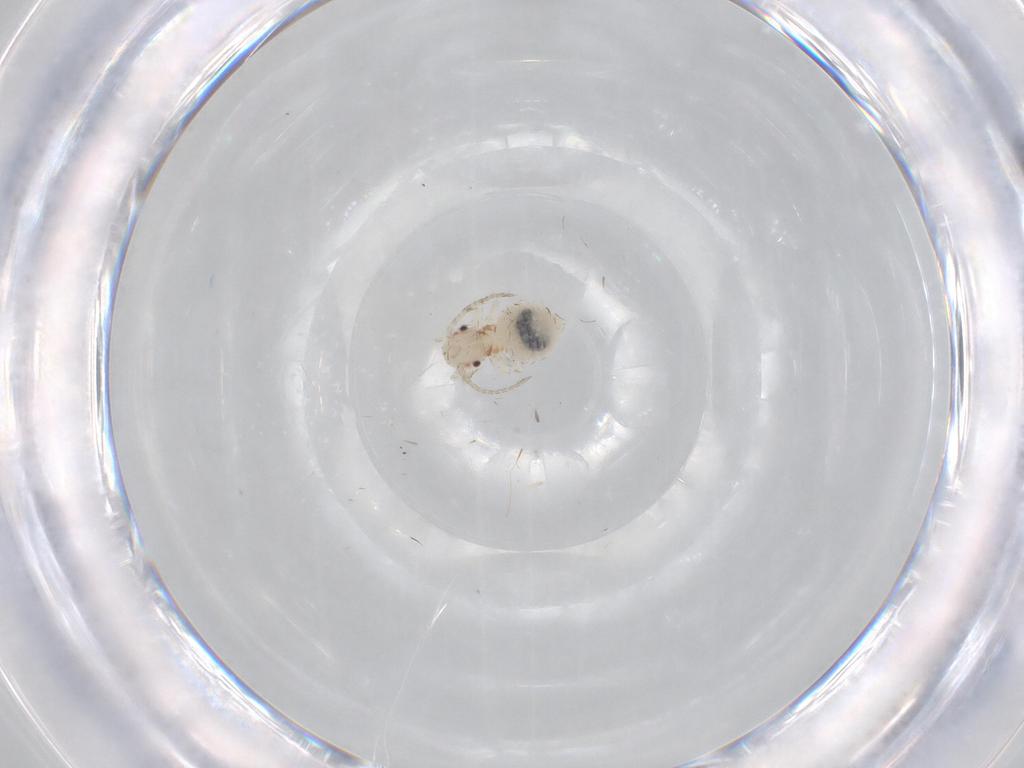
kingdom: Animalia
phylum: Arthropoda
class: Insecta
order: Psocodea
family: Amphipsocidae
